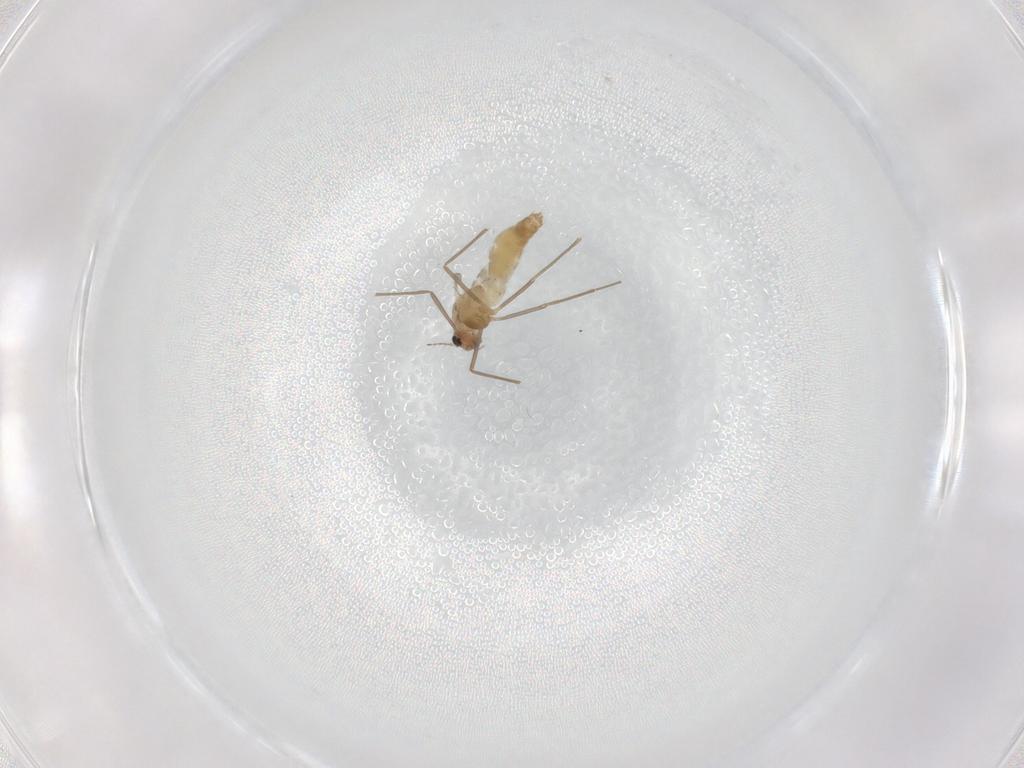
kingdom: Animalia
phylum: Arthropoda
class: Insecta
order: Diptera
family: Chironomidae
